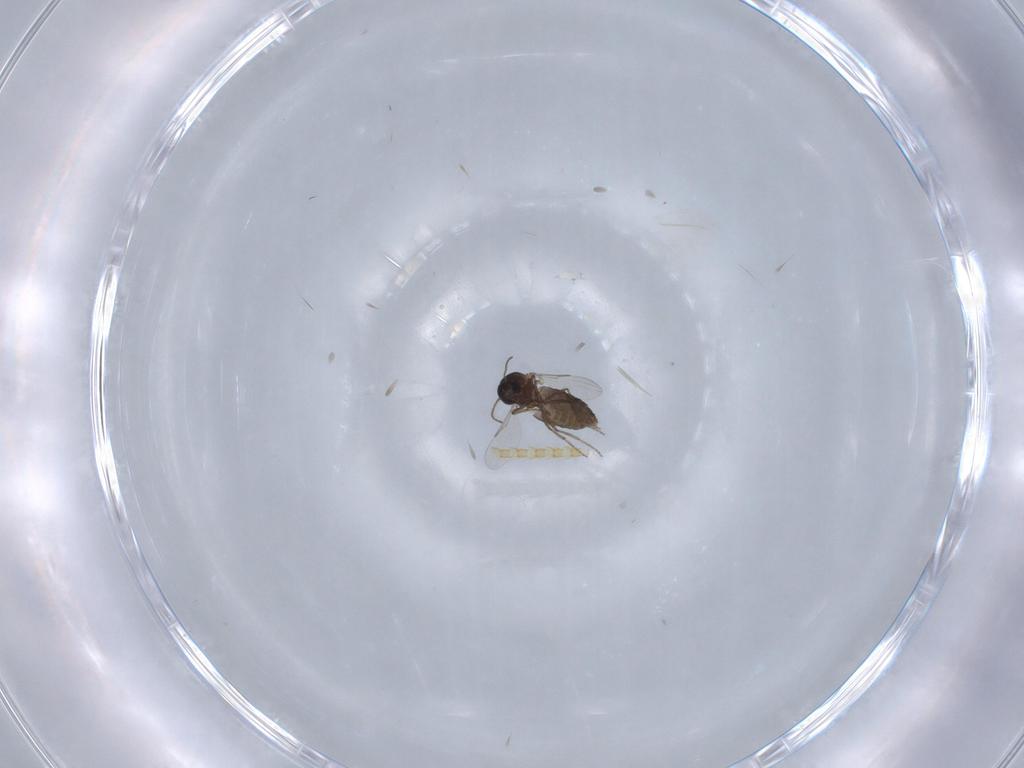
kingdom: Animalia
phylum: Arthropoda
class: Insecta
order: Diptera
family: Ceratopogonidae
